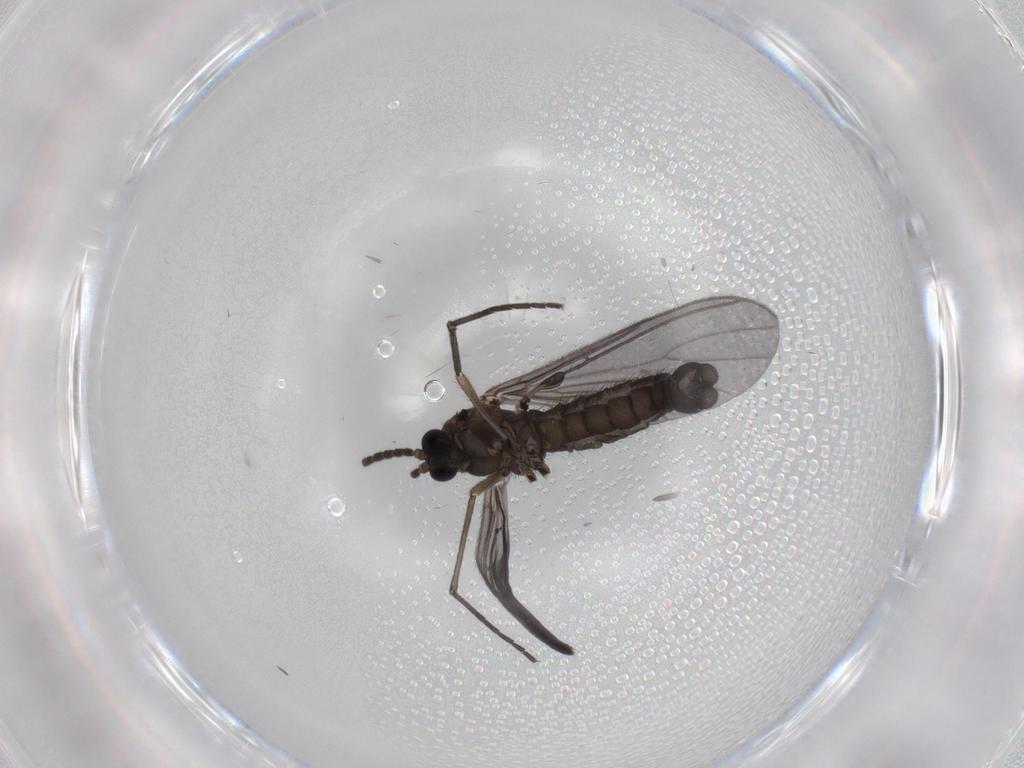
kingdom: Animalia
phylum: Arthropoda
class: Insecta
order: Diptera
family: Sciaridae
